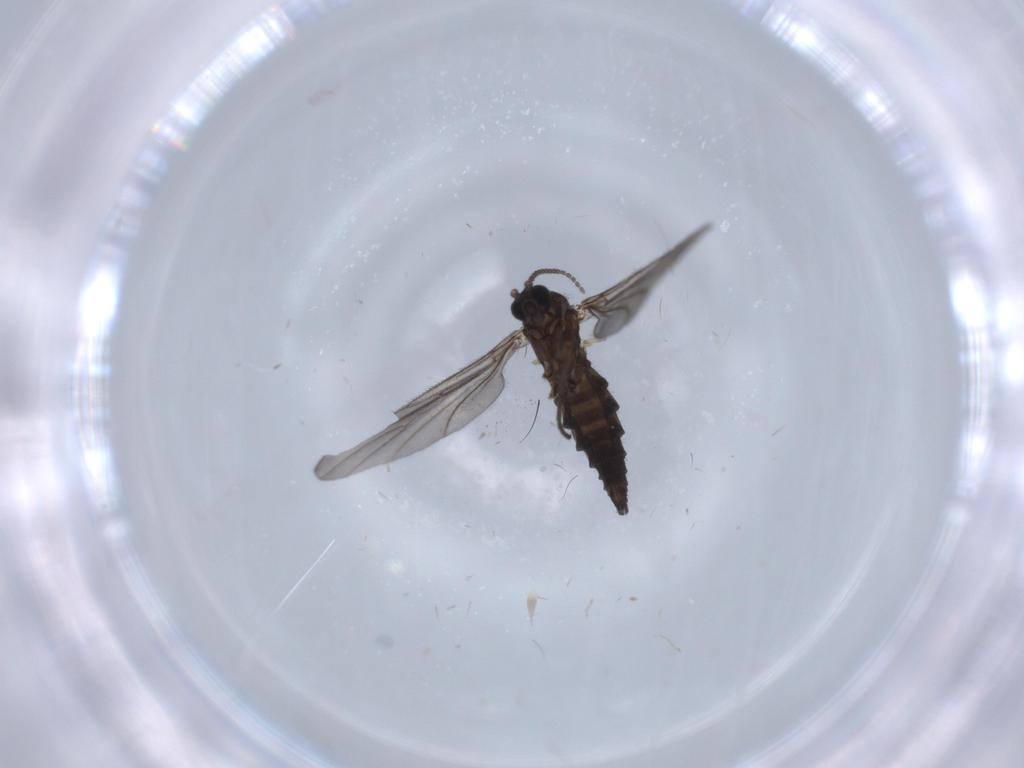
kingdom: Animalia
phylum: Arthropoda
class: Insecta
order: Diptera
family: Sciaridae
